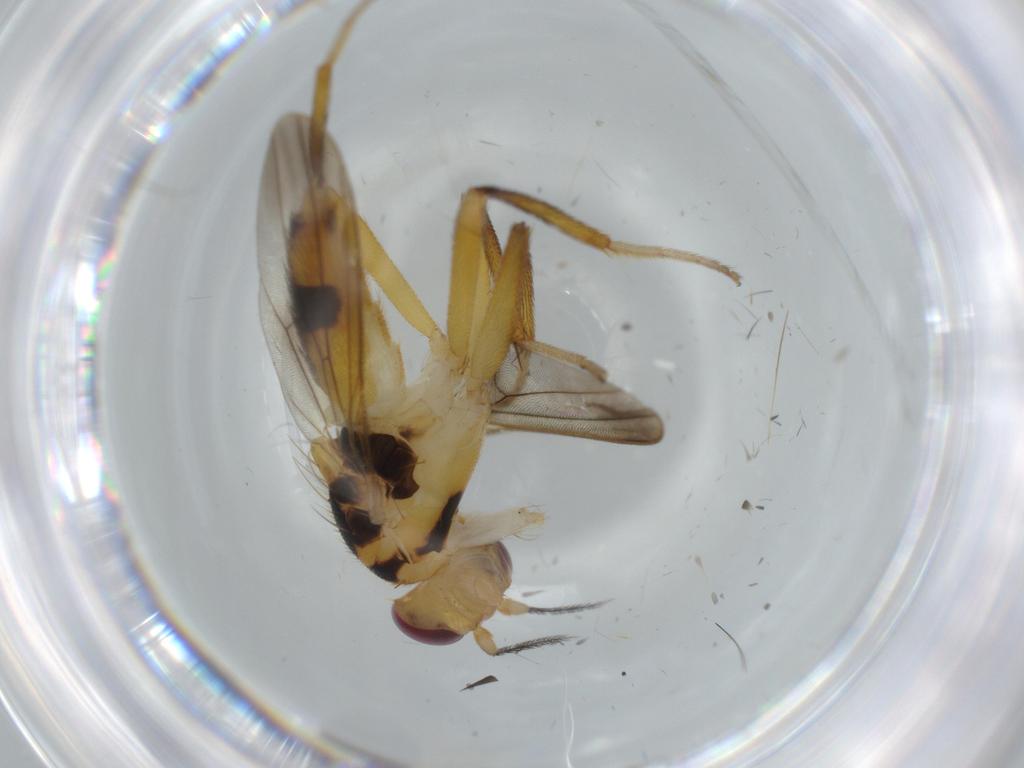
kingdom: Animalia
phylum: Arthropoda
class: Insecta
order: Diptera
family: Clusiidae
